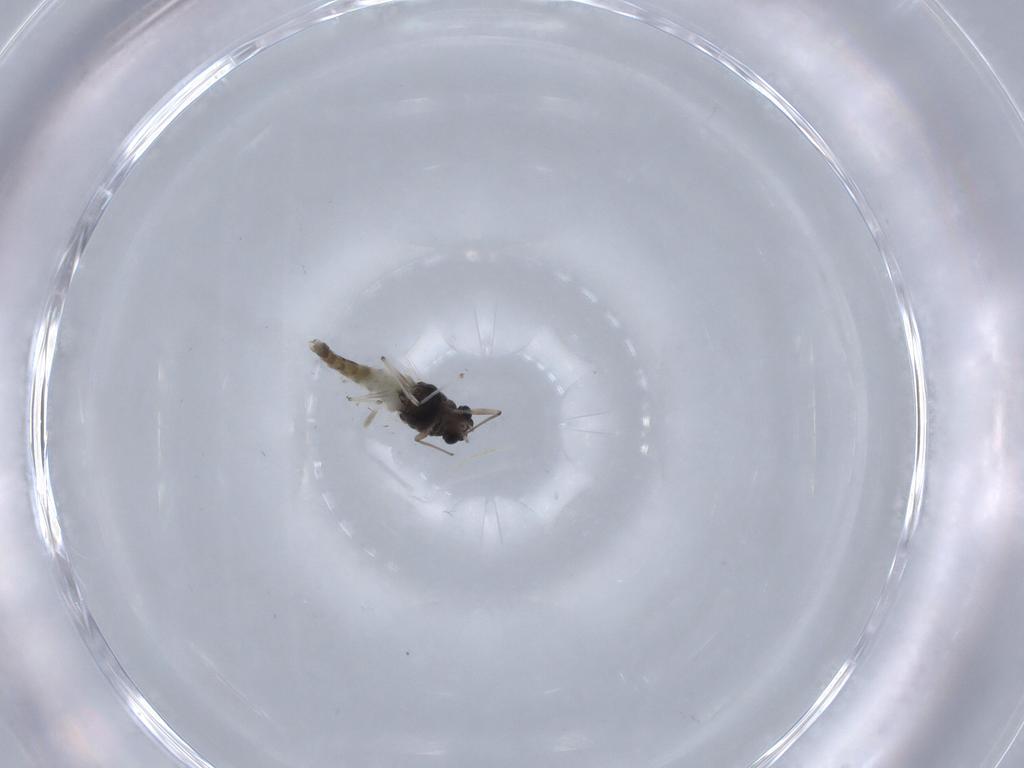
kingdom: Animalia
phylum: Arthropoda
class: Insecta
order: Diptera
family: Chironomidae
